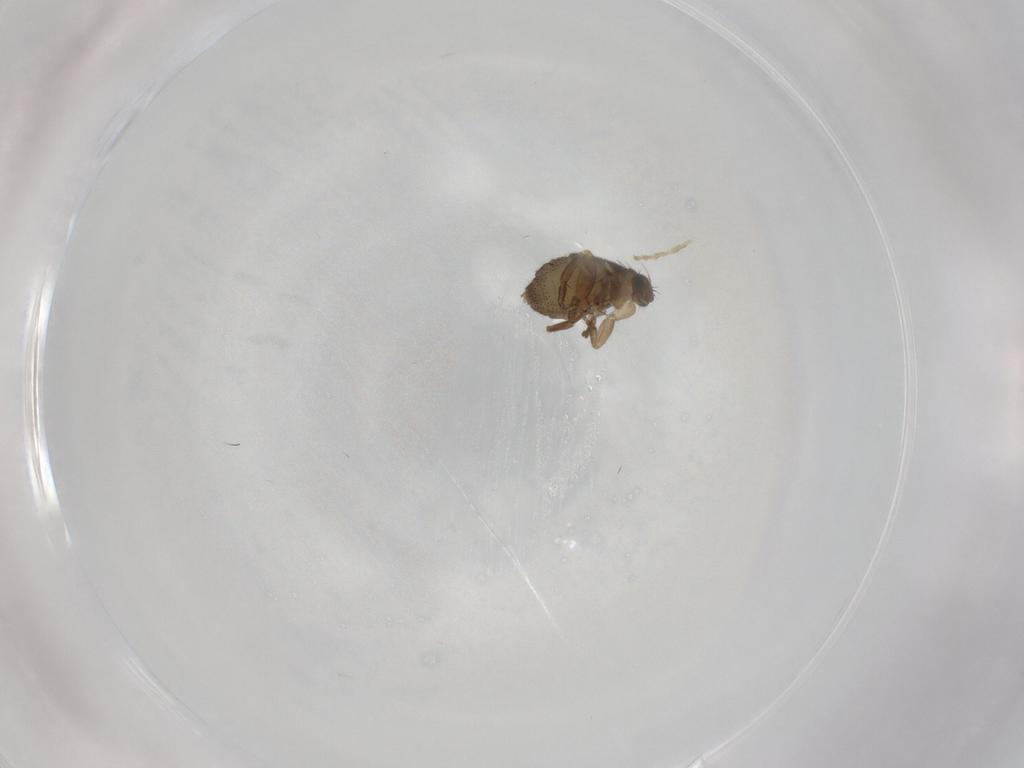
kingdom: Animalia
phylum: Arthropoda
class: Insecta
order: Diptera
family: Chironomidae
